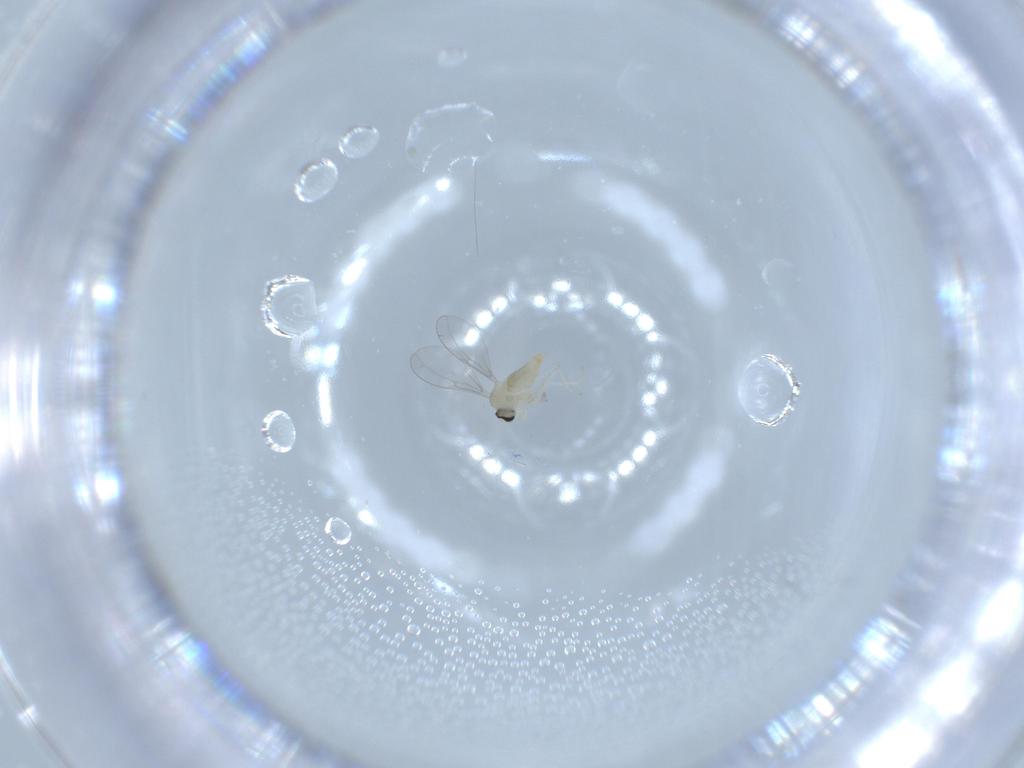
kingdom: Animalia
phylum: Arthropoda
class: Insecta
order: Diptera
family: Cecidomyiidae
